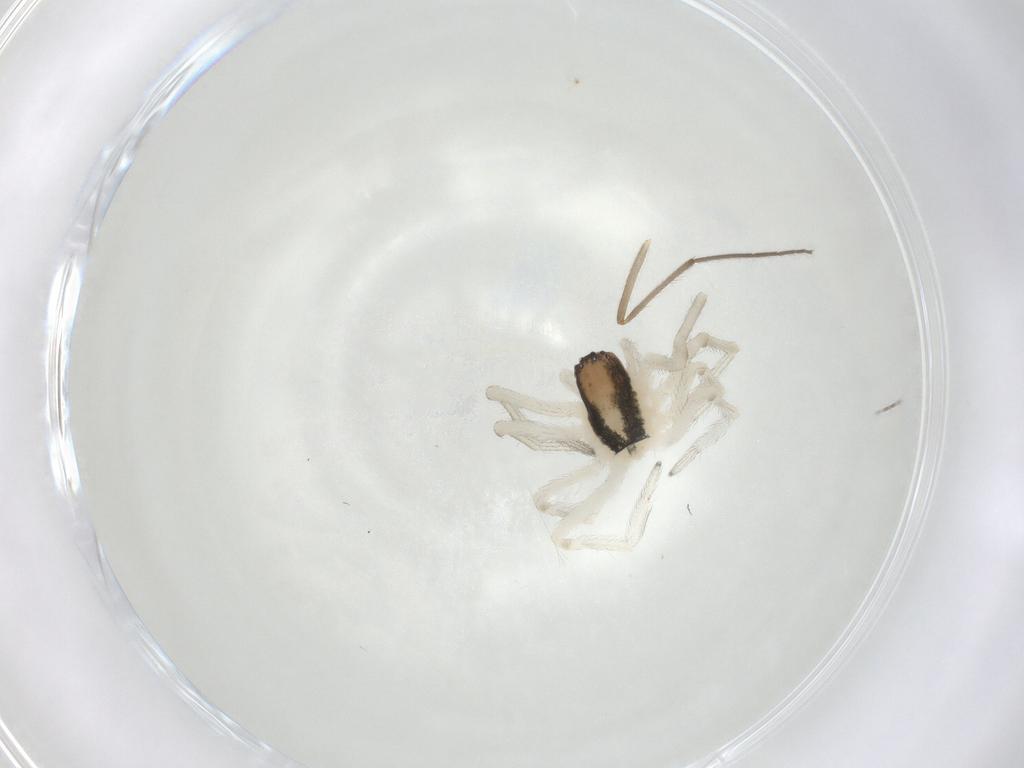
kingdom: Animalia
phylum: Arthropoda
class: Arachnida
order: Araneae
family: Dictynidae
